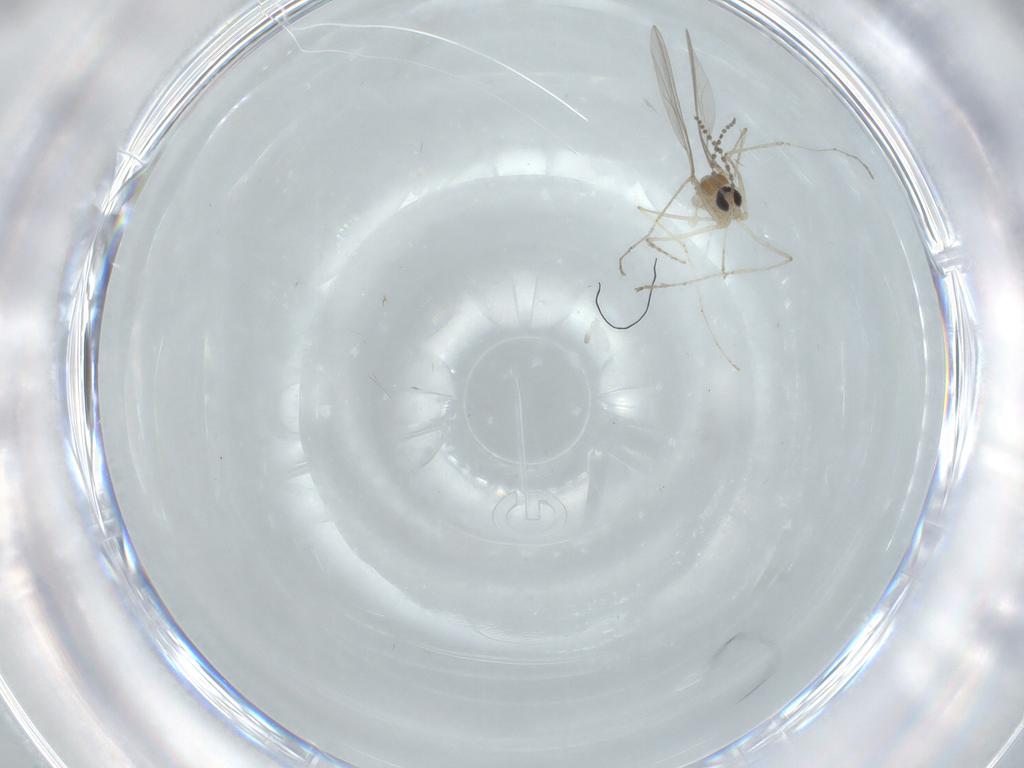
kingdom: Animalia
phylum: Arthropoda
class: Insecta
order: Diptera
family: Cecidomyiidae
